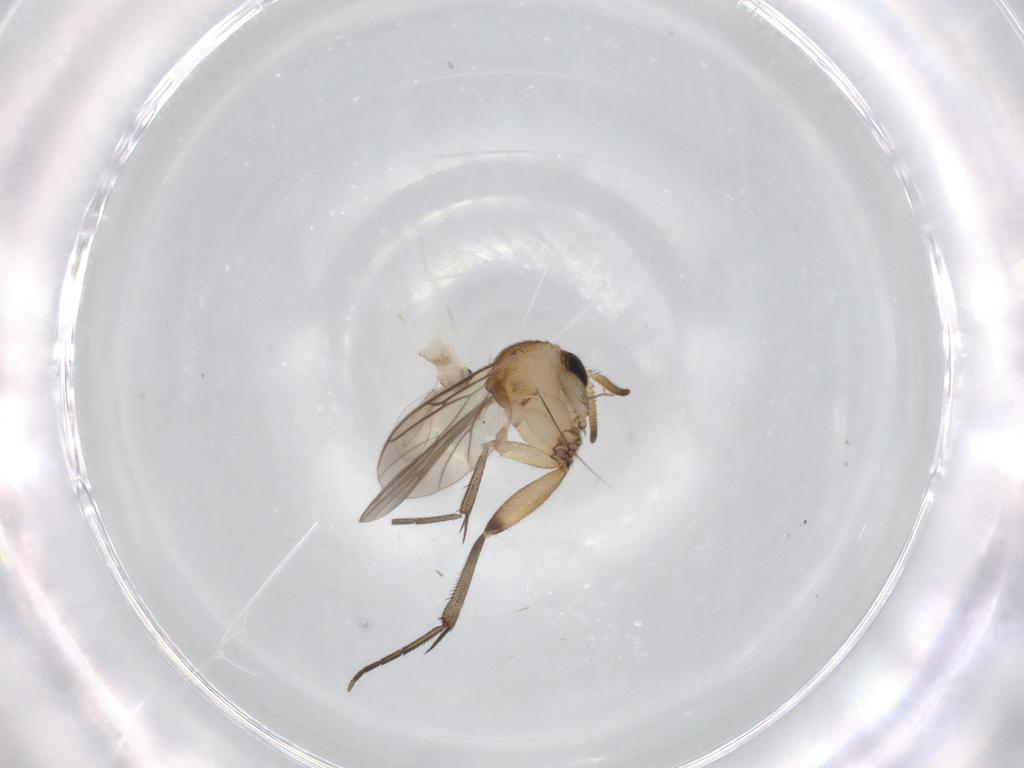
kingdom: Animalia
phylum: Arthropoda
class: Insecta
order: Diptera
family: Cecidomyiidae
